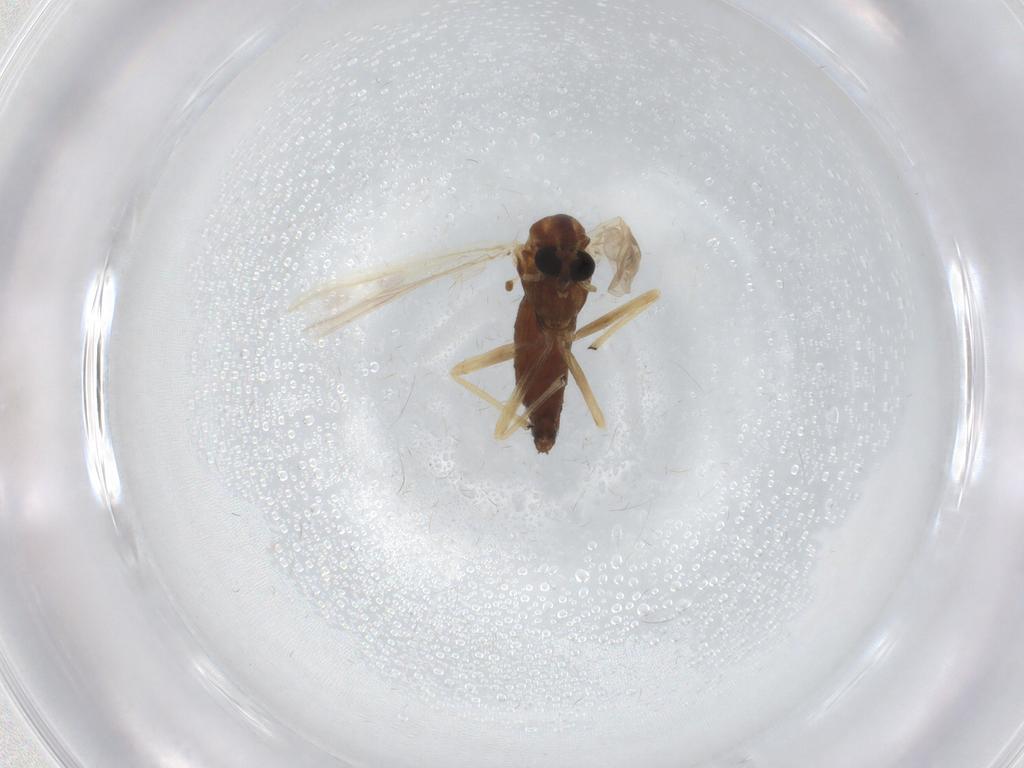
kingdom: Animalia
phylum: Arthropoda
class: Insecta
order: Diptera
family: Chironomidae
